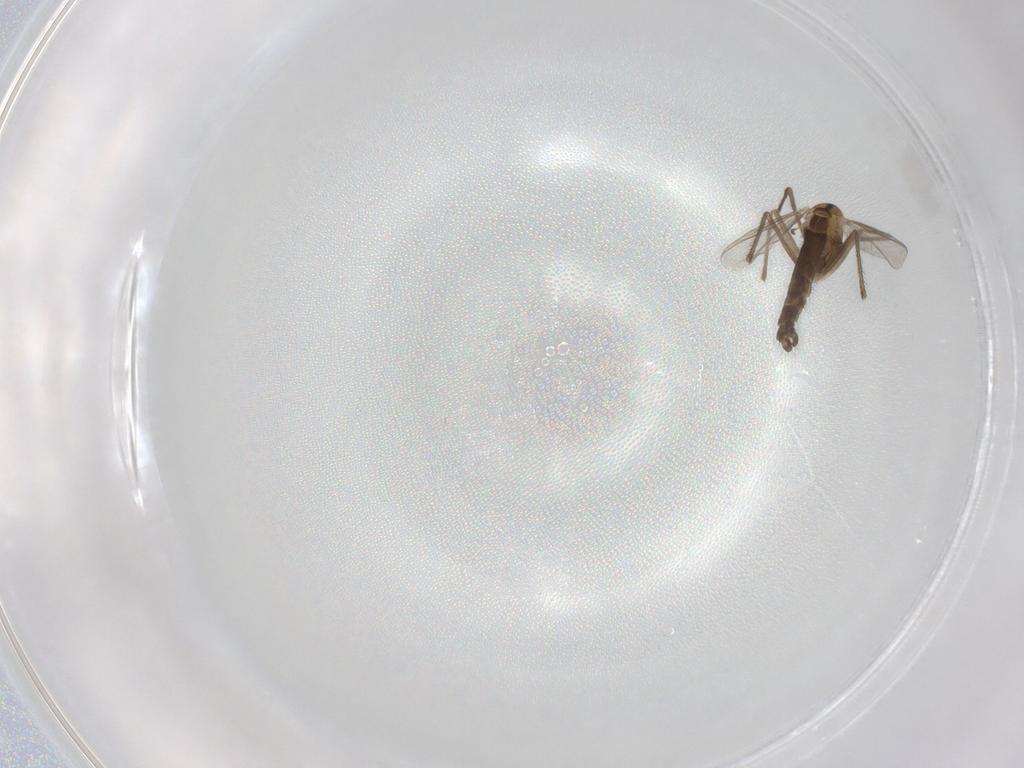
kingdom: Animalia
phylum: Arthropoda
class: Insecta
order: Diptera
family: Chironomidae
